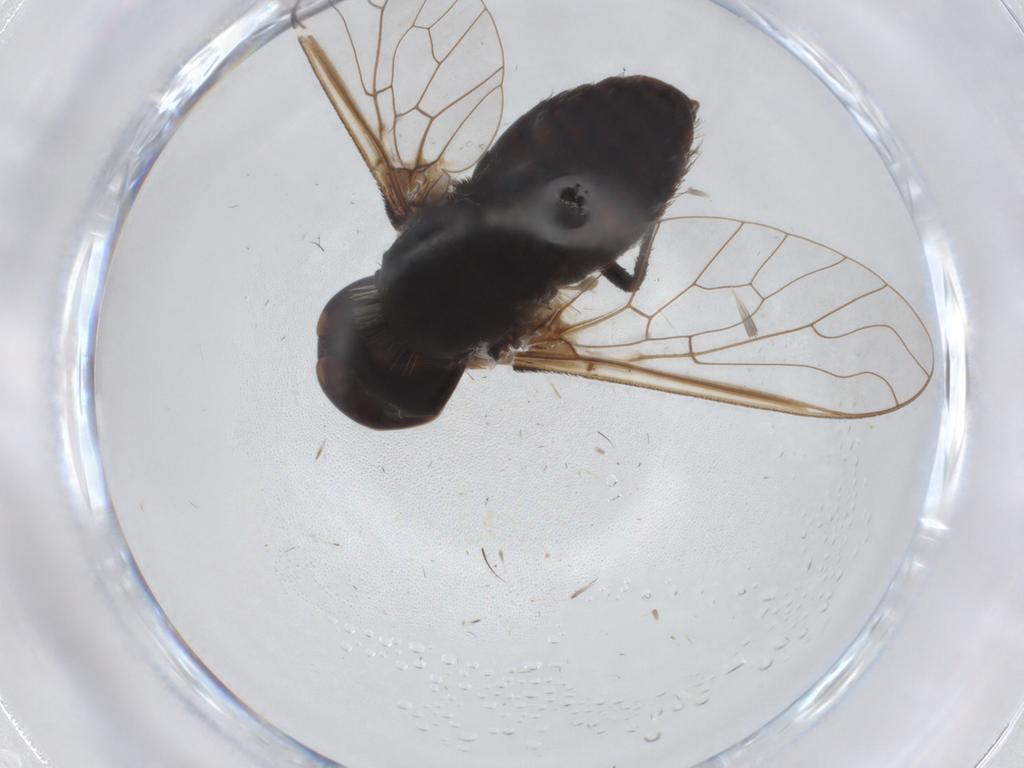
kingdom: Animalia
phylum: Arthropoda
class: Insecta
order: Diptera
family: Bombyliidae
